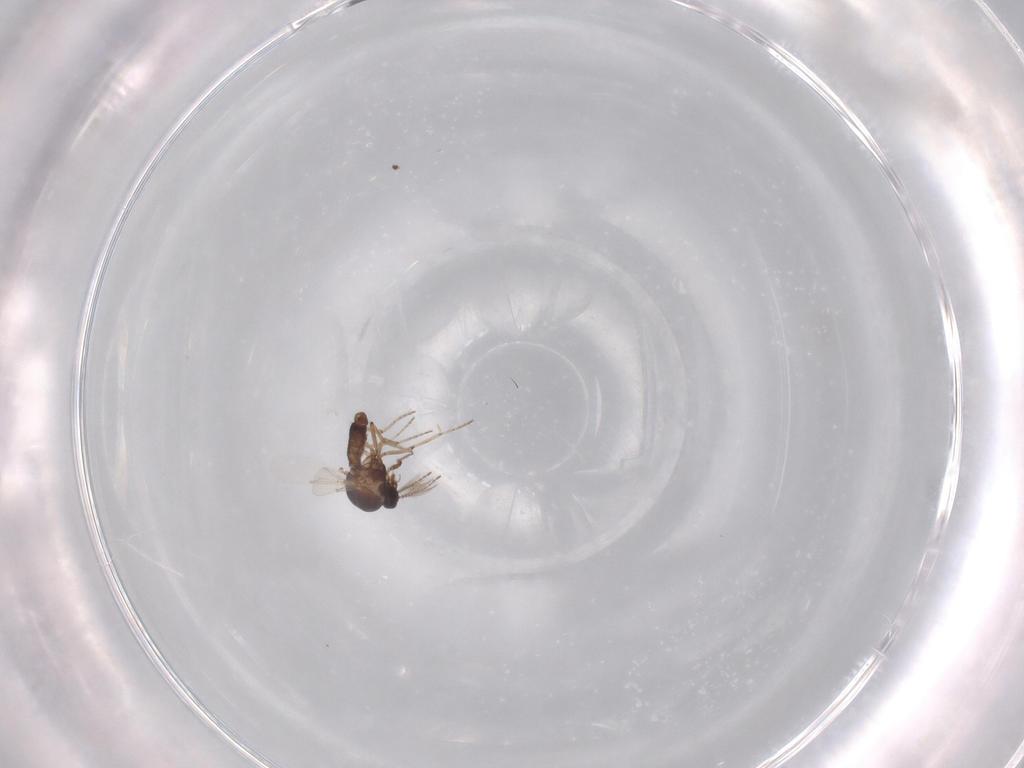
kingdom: Animalia
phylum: Arthropoda
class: Insecta
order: Diptera
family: Ceratopogonidae
